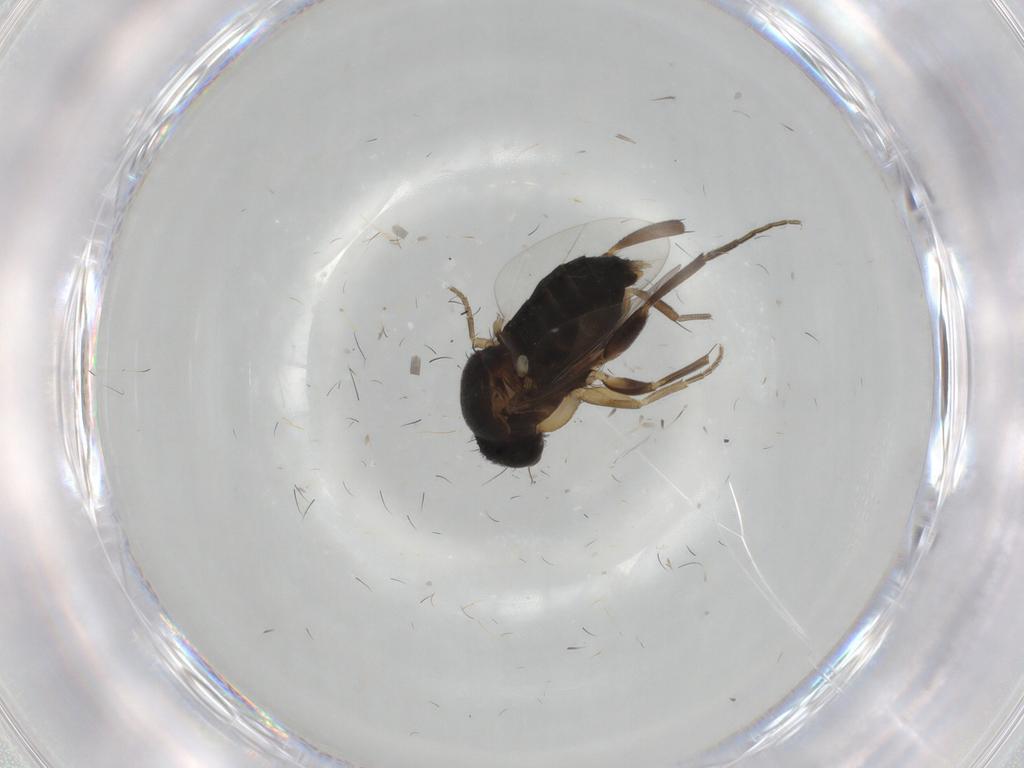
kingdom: Animalia
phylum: Arthropoda
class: Insecta
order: Diptera
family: Phoridae
